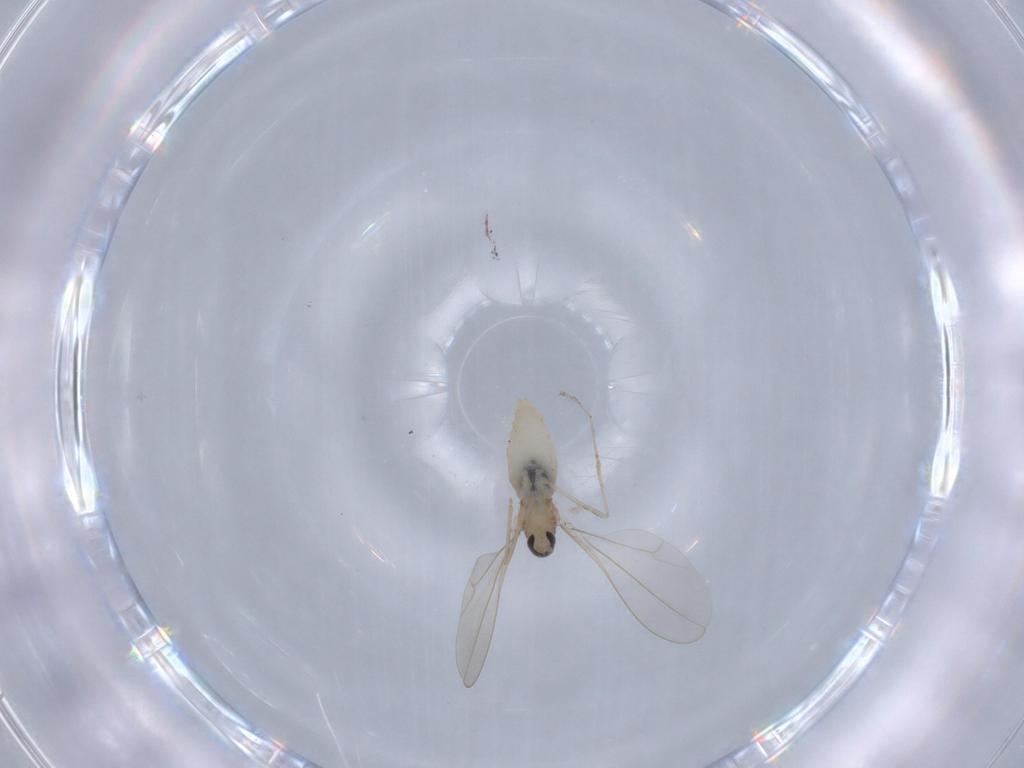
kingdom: Animalia
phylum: Arthropoda
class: Insecta
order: Diptera
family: Cecidomyiidae
